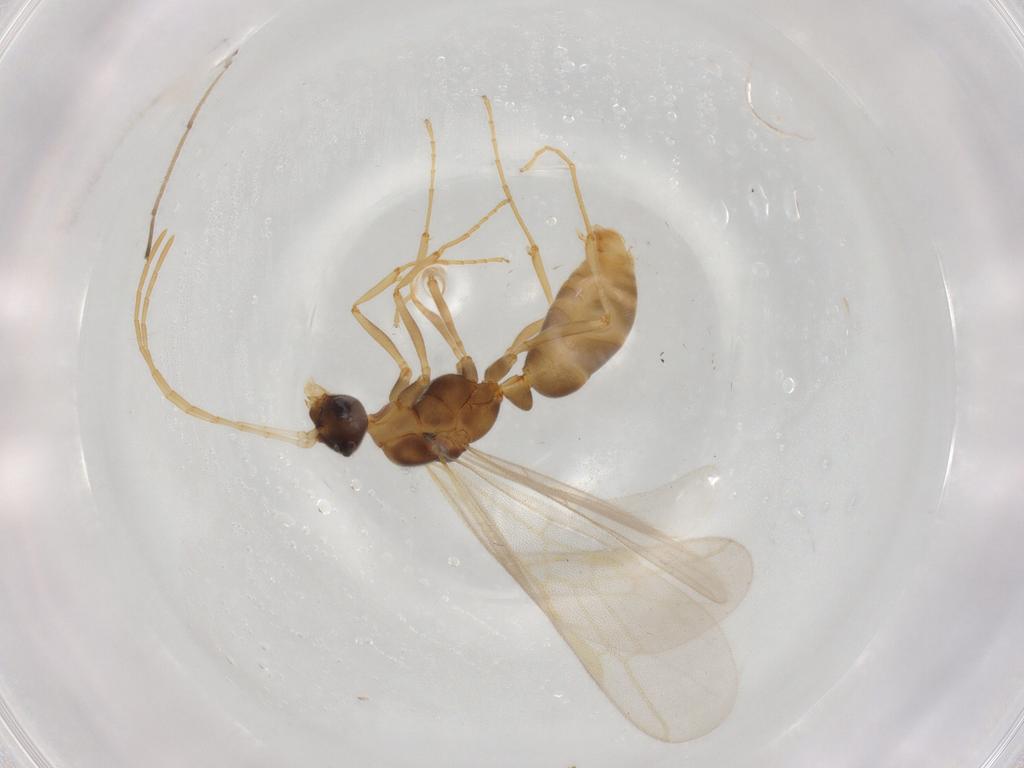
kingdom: Animalia
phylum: Arthropoda
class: Insecta
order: Hymenoptera
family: Formicidae
